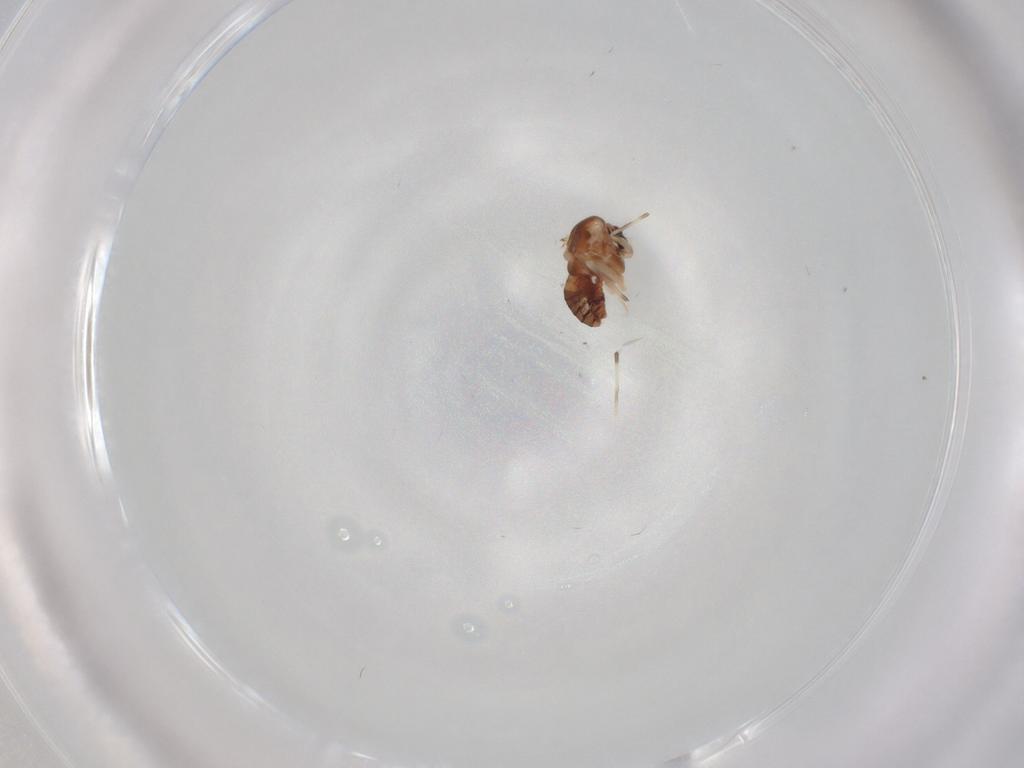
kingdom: Animalia
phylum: Arthropoda
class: Insecta
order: Diptera
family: Chironomidae
